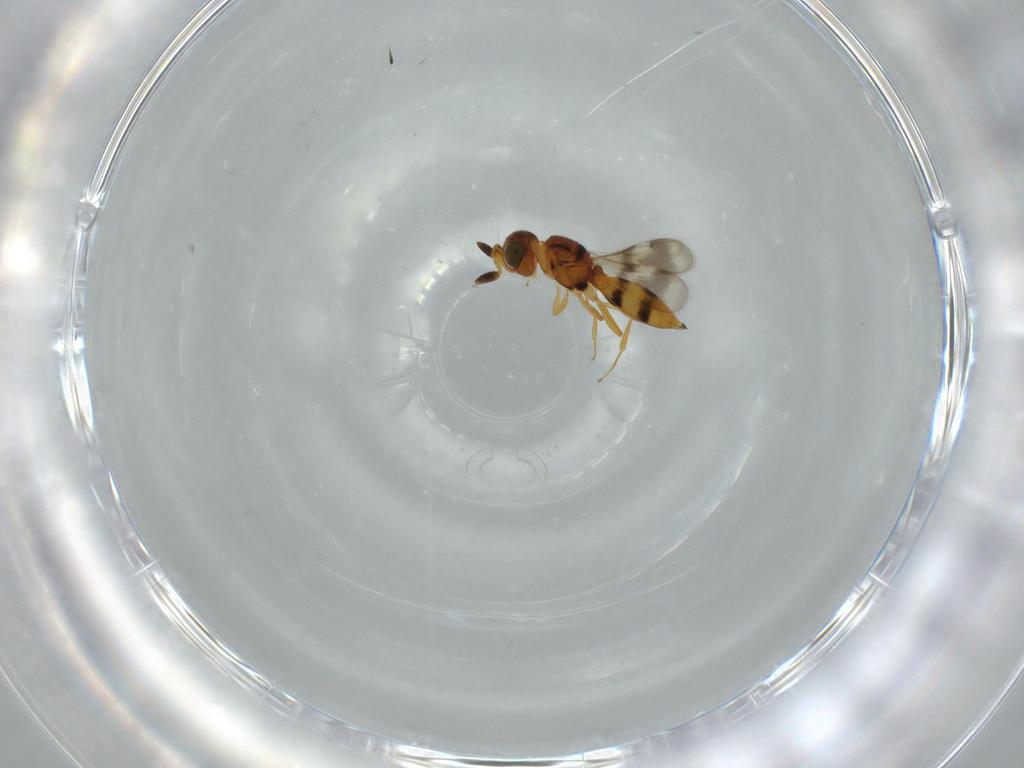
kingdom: Animalia
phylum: Arthropoda
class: Insecta
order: Hymenoptera
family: Scelionidae
